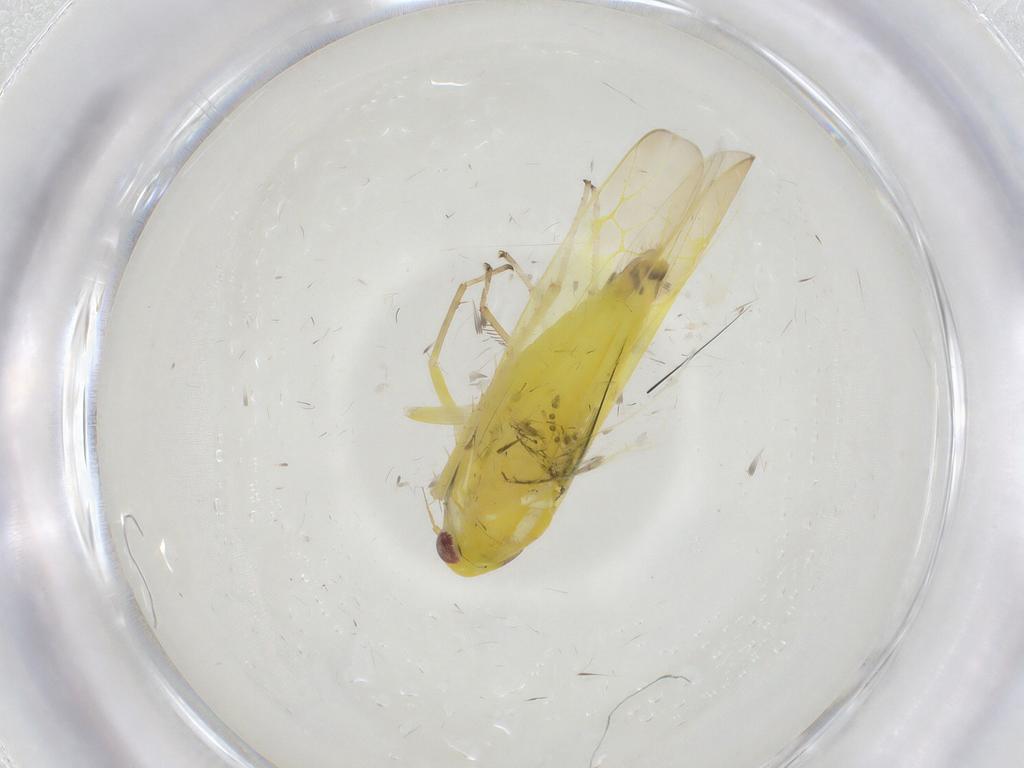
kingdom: Animalia
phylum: Arthropoda
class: Insecta
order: Hemiptera
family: Cicadellidae
